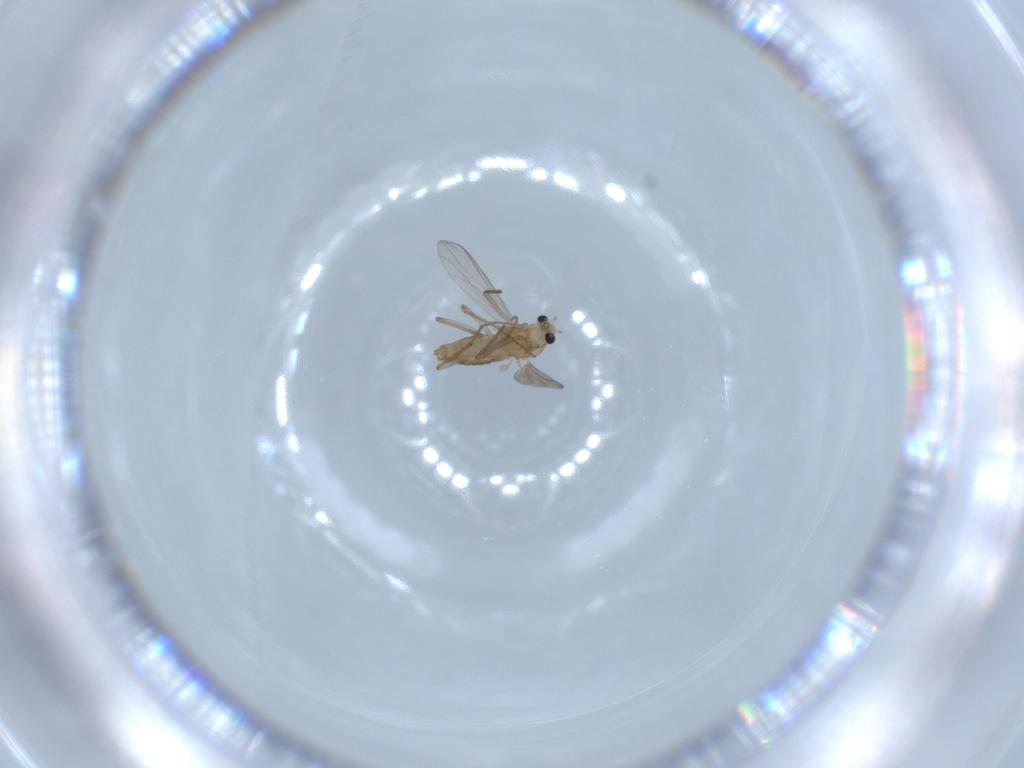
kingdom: Animalia
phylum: Arthropoda
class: Insecta
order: Diptera
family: Chironomidae
